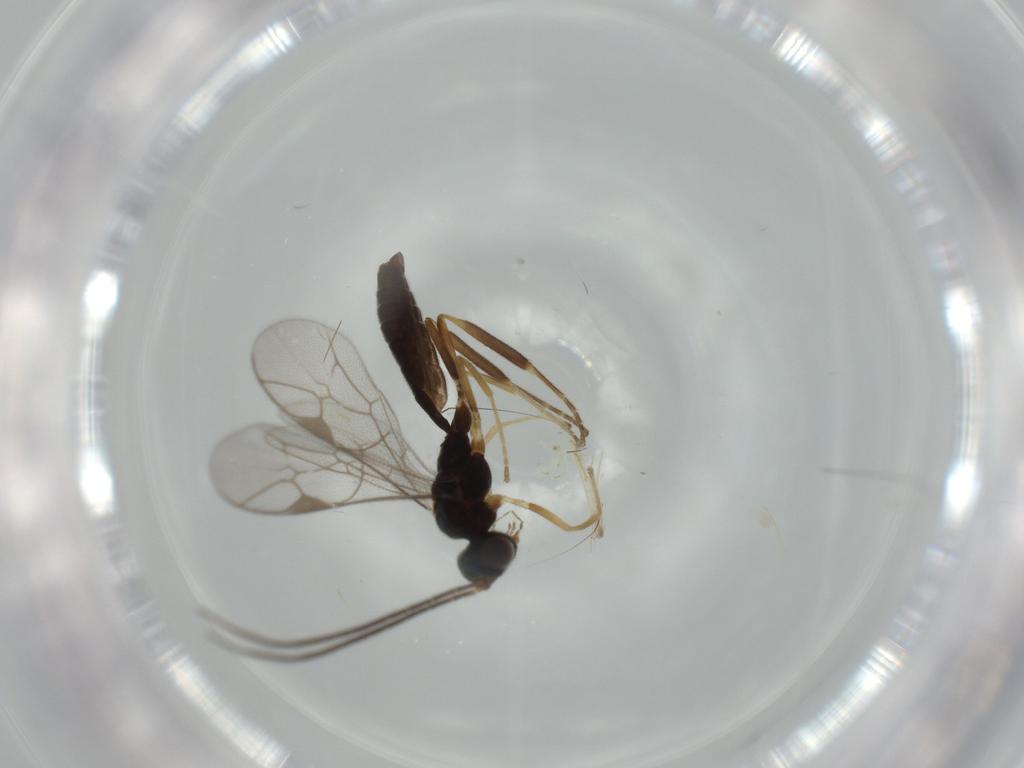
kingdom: Animalia
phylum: Arthropoda
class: Insecta
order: Hymenoptera
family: Ichneumonidae
